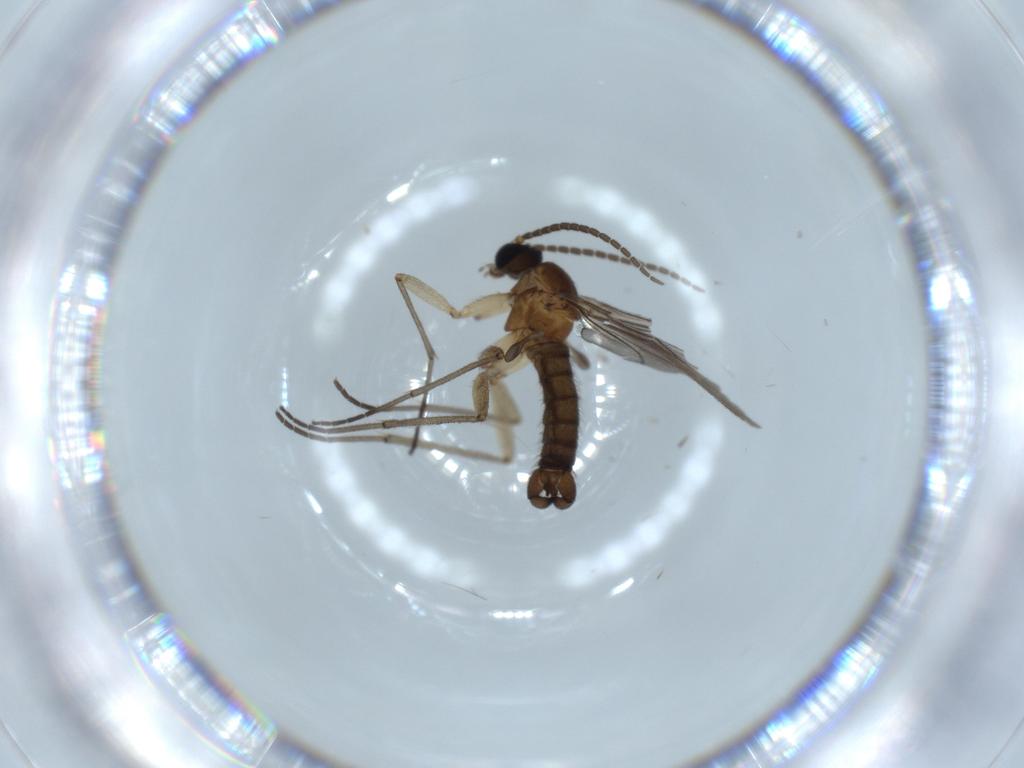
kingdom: Animalia
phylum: Arthropoda
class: Insecta
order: Diptera
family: Sciaridae
